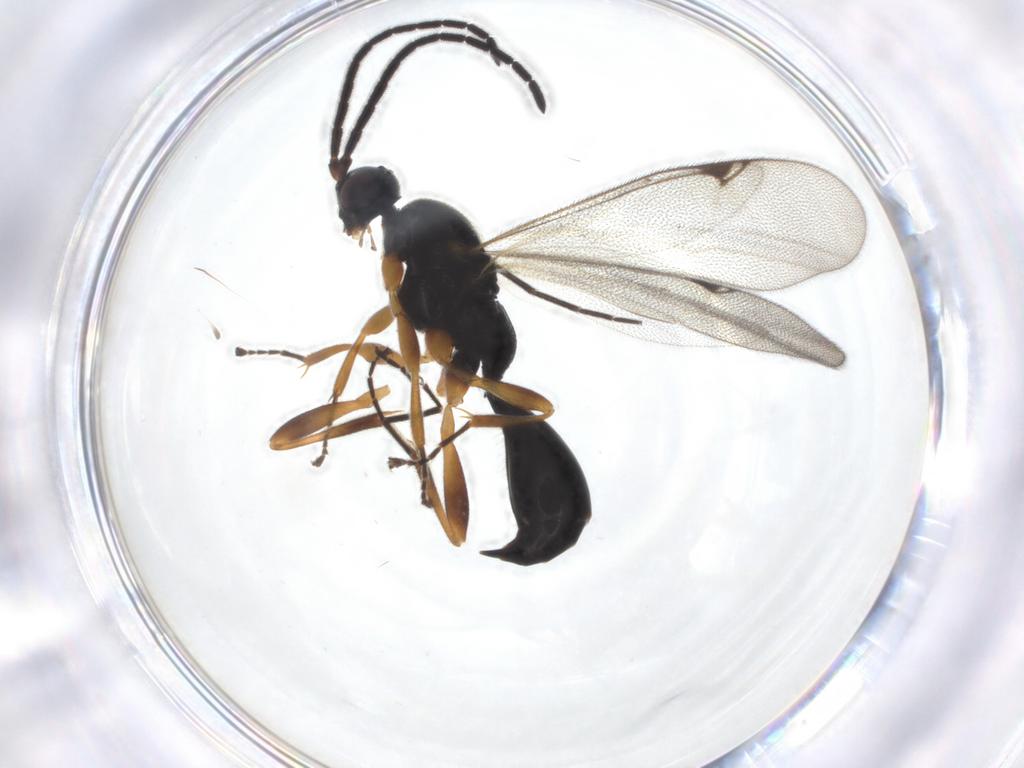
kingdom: Animalia
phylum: Arthropoda
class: Insecta
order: Hymenoptera
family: Proctotrupidae
